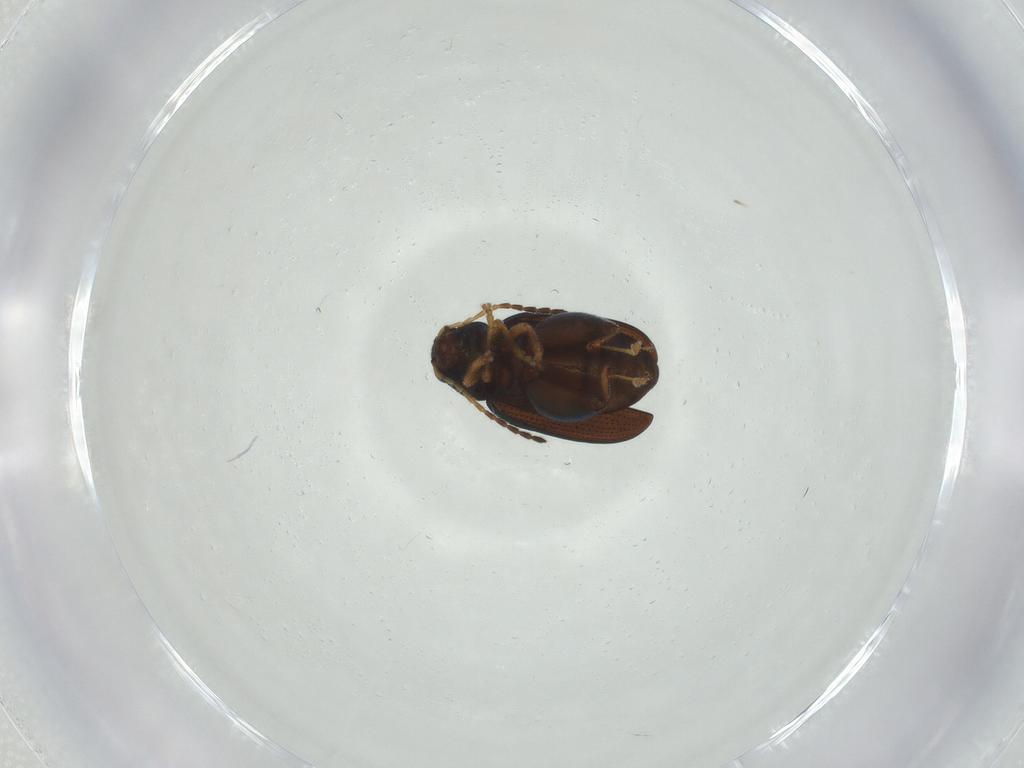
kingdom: Animalia
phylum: Arthropoda
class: Insecta
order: Coleoptera
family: Chrysomelidae
